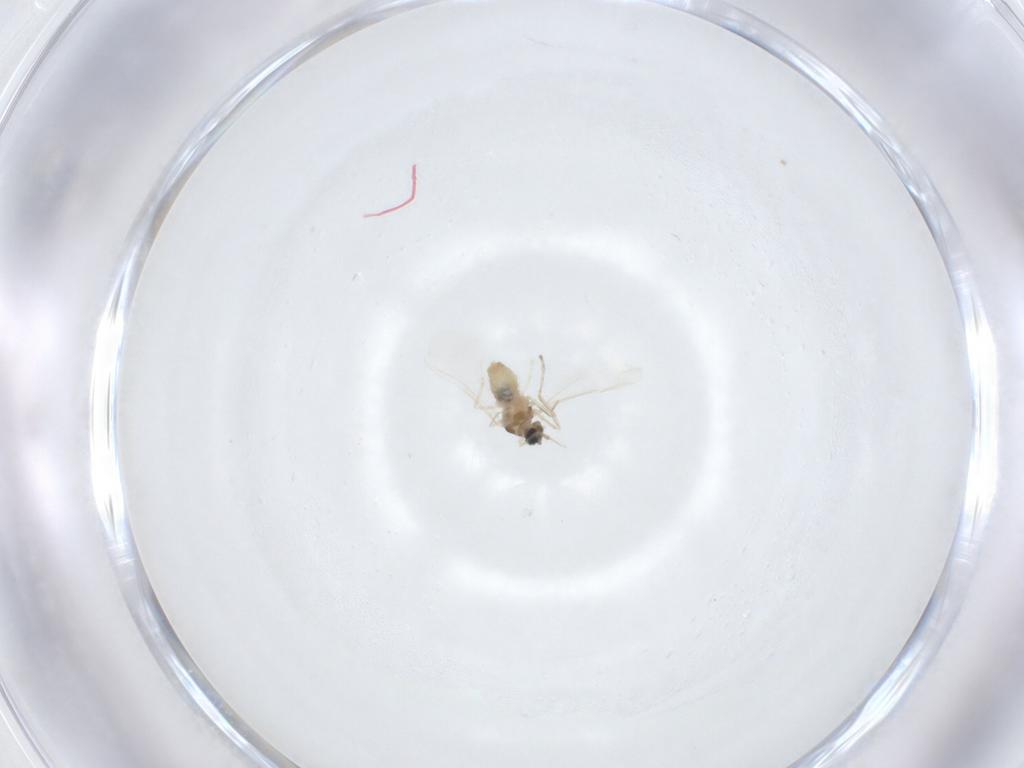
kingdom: Animalia
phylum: Arthropoda
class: Insecta
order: Diptera
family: Cecidomyiidae
